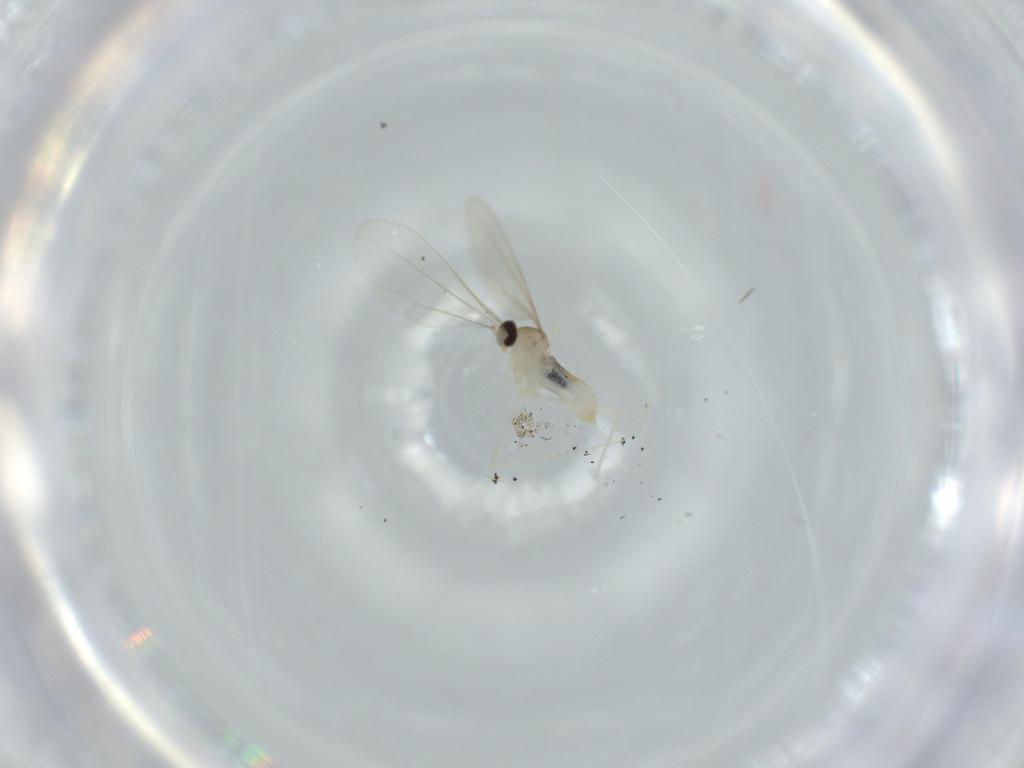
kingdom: Animalia
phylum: Arthropoda
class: Insecta
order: Diptera
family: Cecidomyiidae
